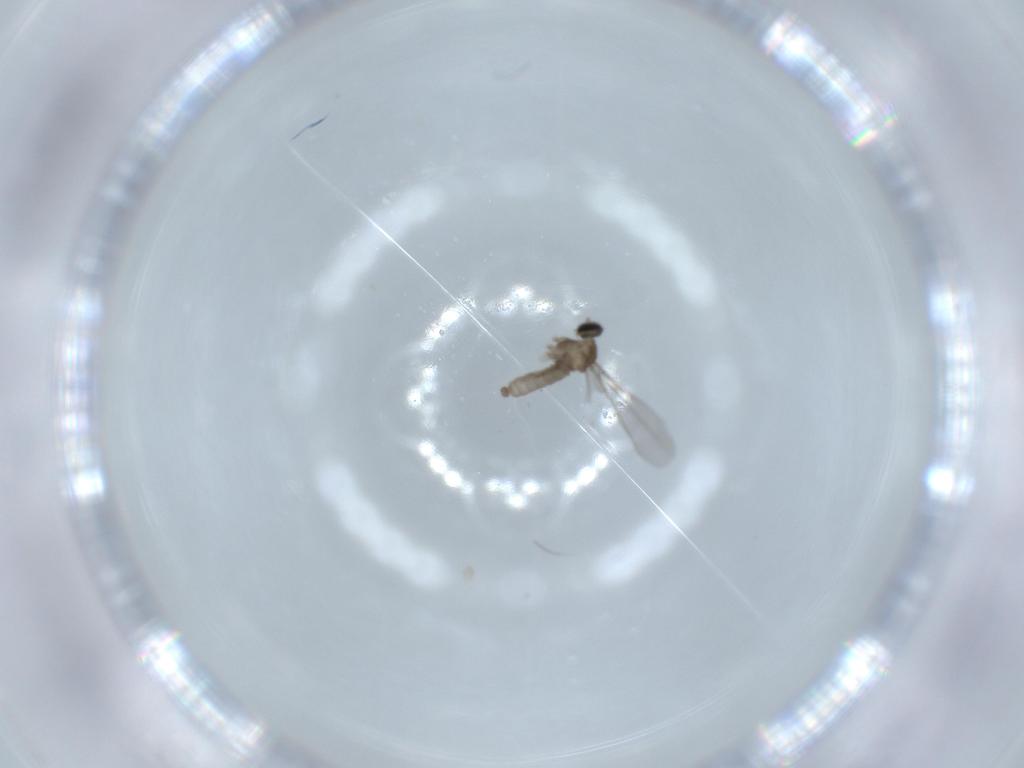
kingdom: Animalia
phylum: Arthropoda
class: Insecta
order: Diptera
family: Cecidomyiidae
